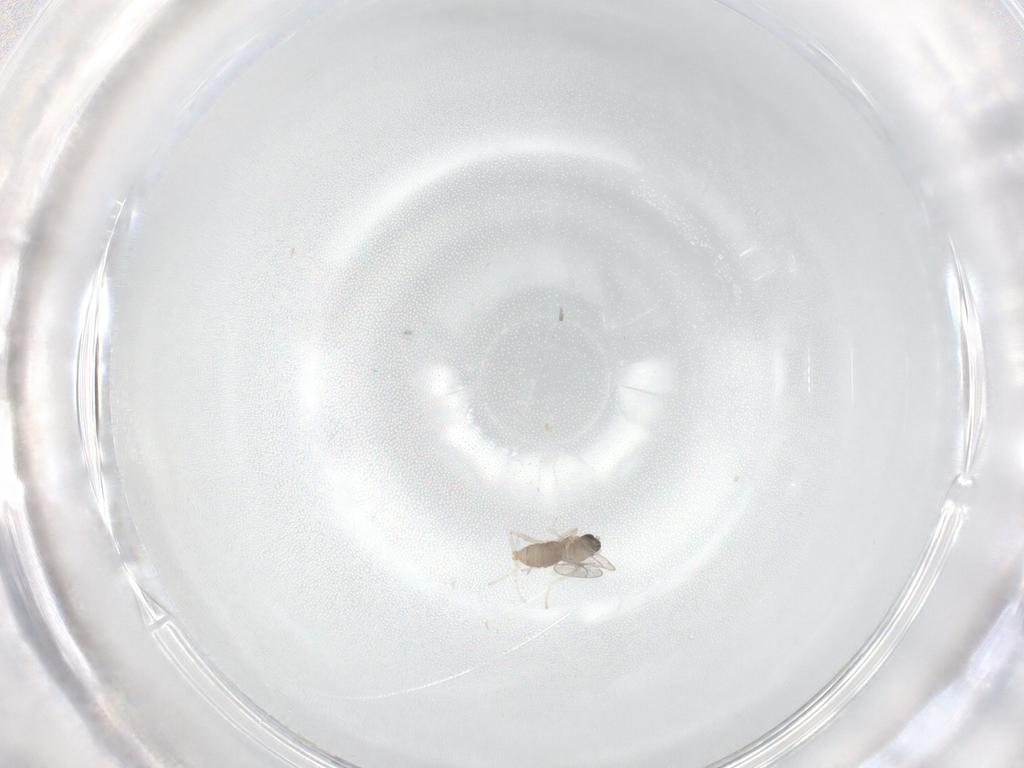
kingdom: Animalia
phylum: Arthropoda
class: Insecta
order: Diptera
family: Cecidomyiidae
